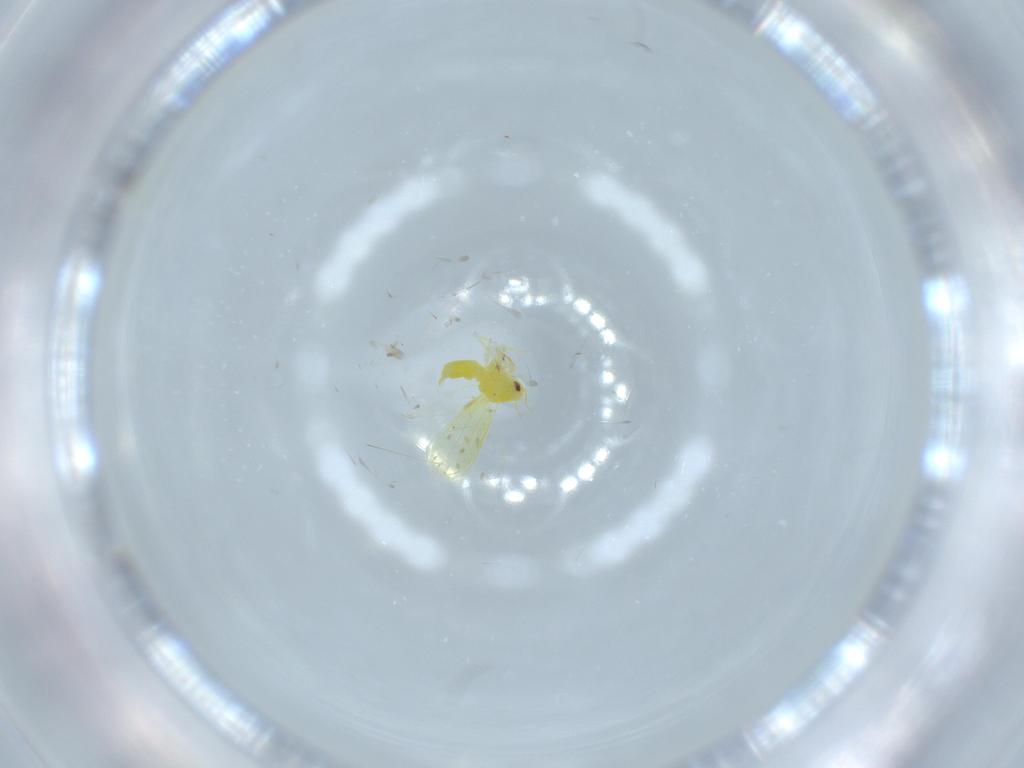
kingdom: Animalia
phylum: Arthropoda
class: Insecta
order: Hemiptera
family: Aleyrodidae
